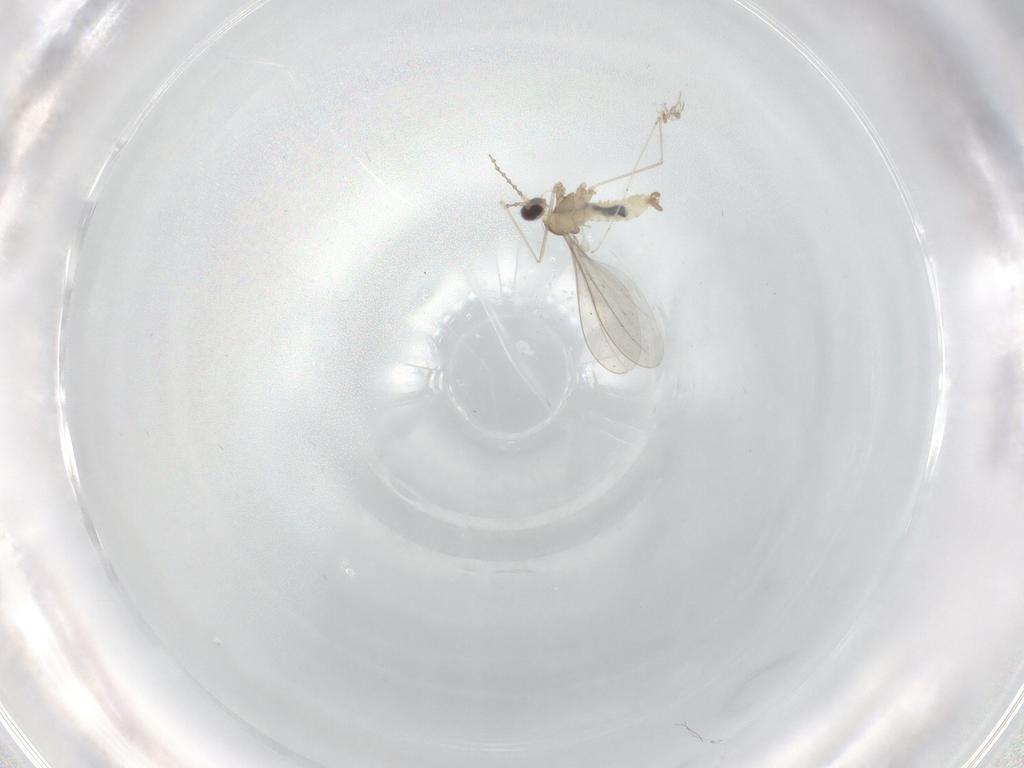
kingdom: Animalia
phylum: Arthropoda
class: Insecta
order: Diptera
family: Cecidomyiidae
